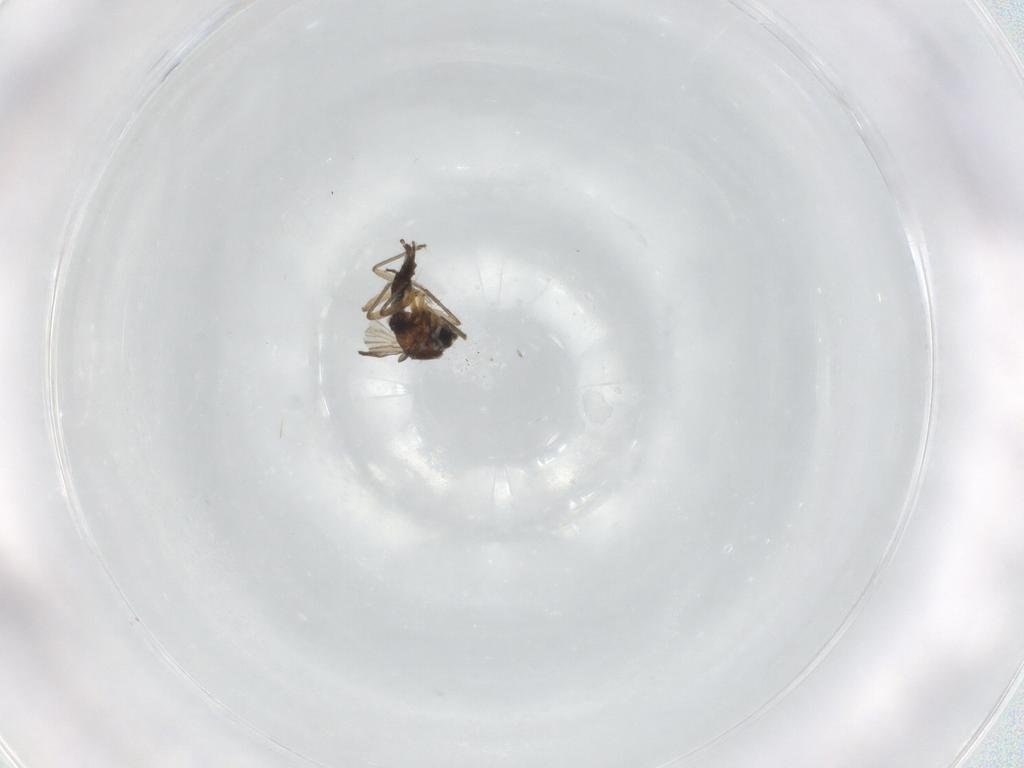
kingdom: Animalia
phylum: Arthropoda
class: Insecta
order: Diptera
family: Sciaridae
